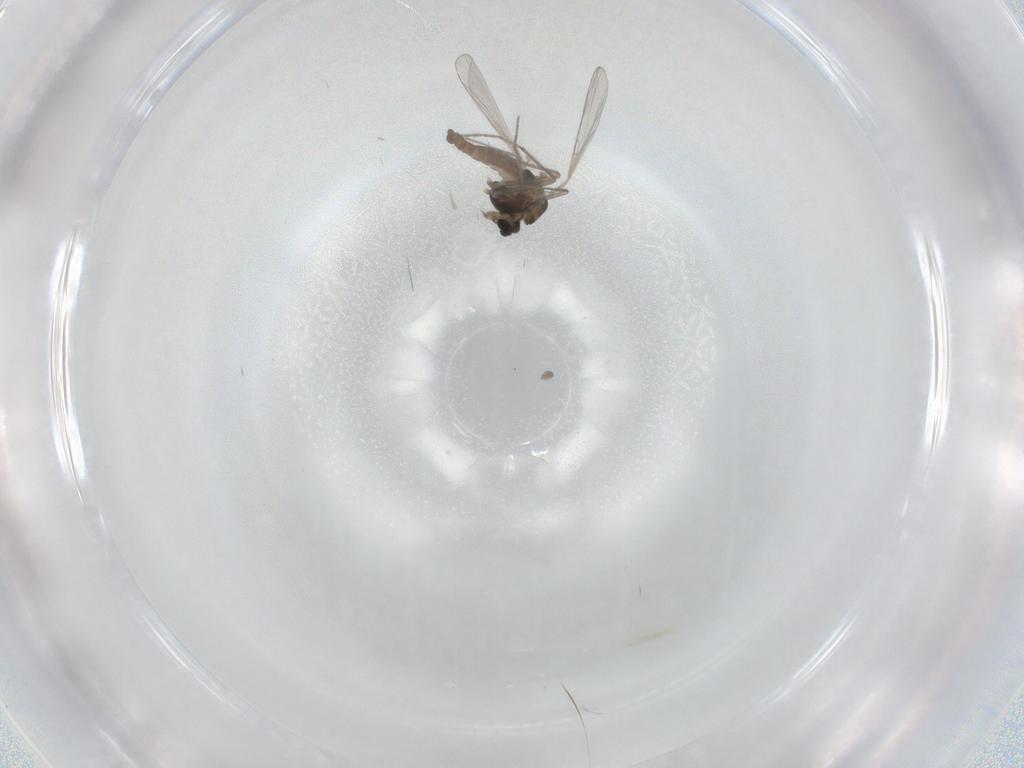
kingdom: Animalia
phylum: Arthropoda
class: Insecta
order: Diptera
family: Chironomidae
